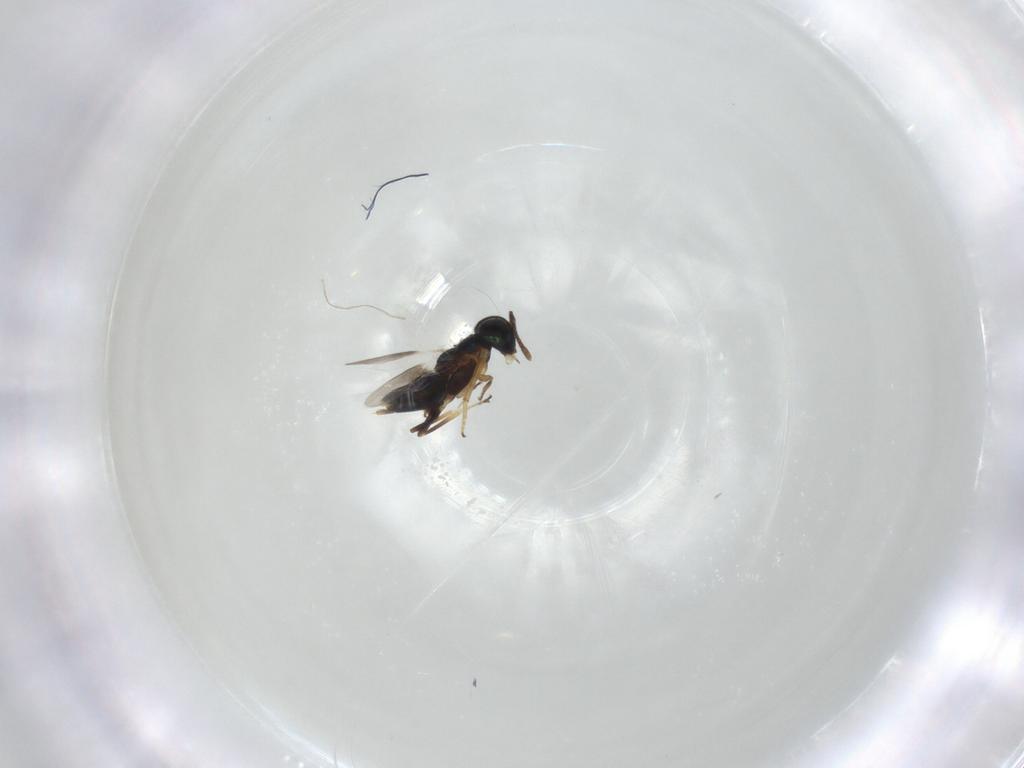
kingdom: Animalia
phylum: Arthropoda
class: Insecta
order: Hymenoptera
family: Encyrtidae
